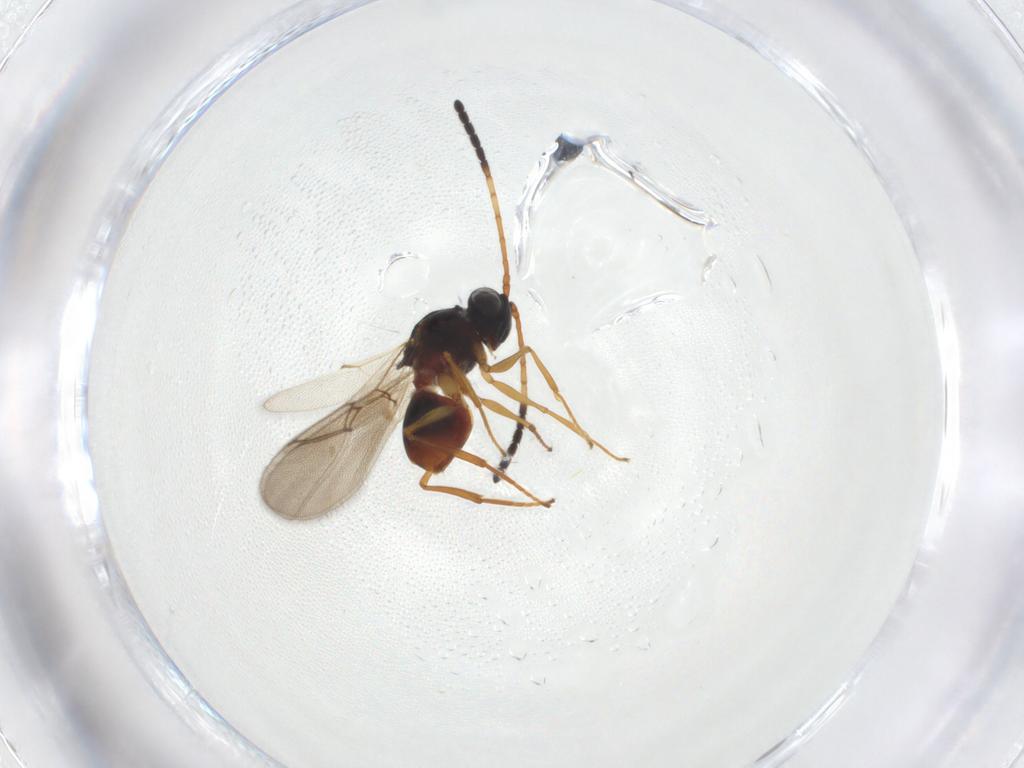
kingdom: Animalia
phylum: Arthropoda
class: Insecta
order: Hymenoptera
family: Figitidae
